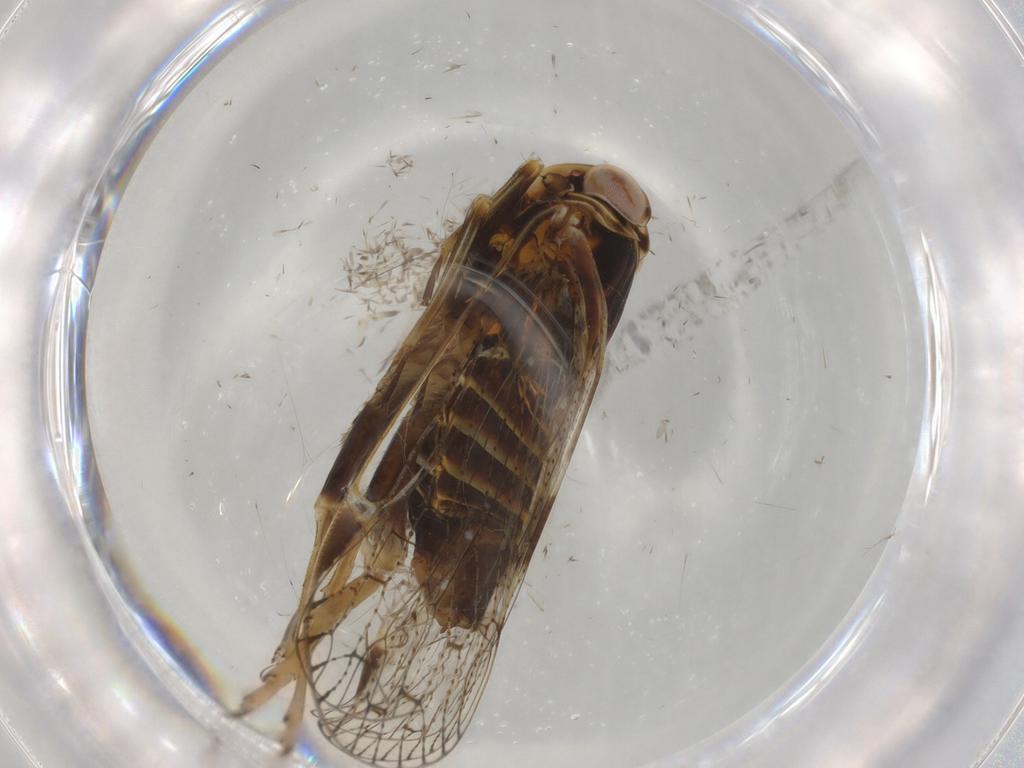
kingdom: Animalia
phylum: Arthropoda
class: Insecta
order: Hemiptera
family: Cixiidae
